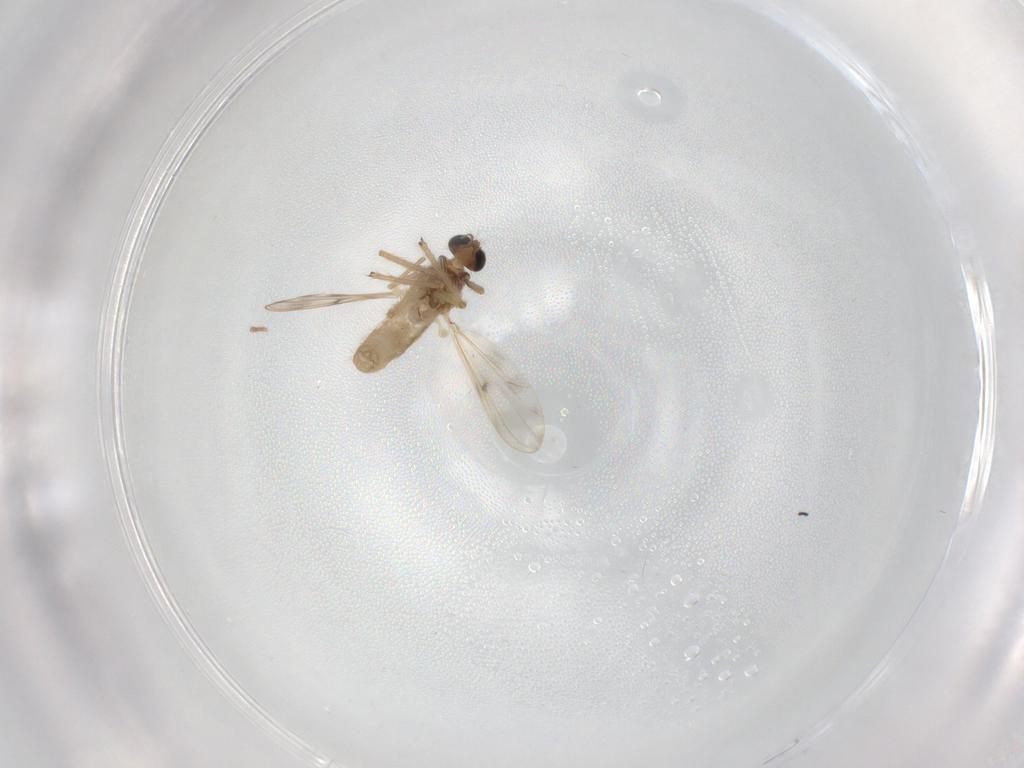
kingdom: Animalia
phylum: Arthropoda
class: Insecta
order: Diptera
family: Chironomidae
